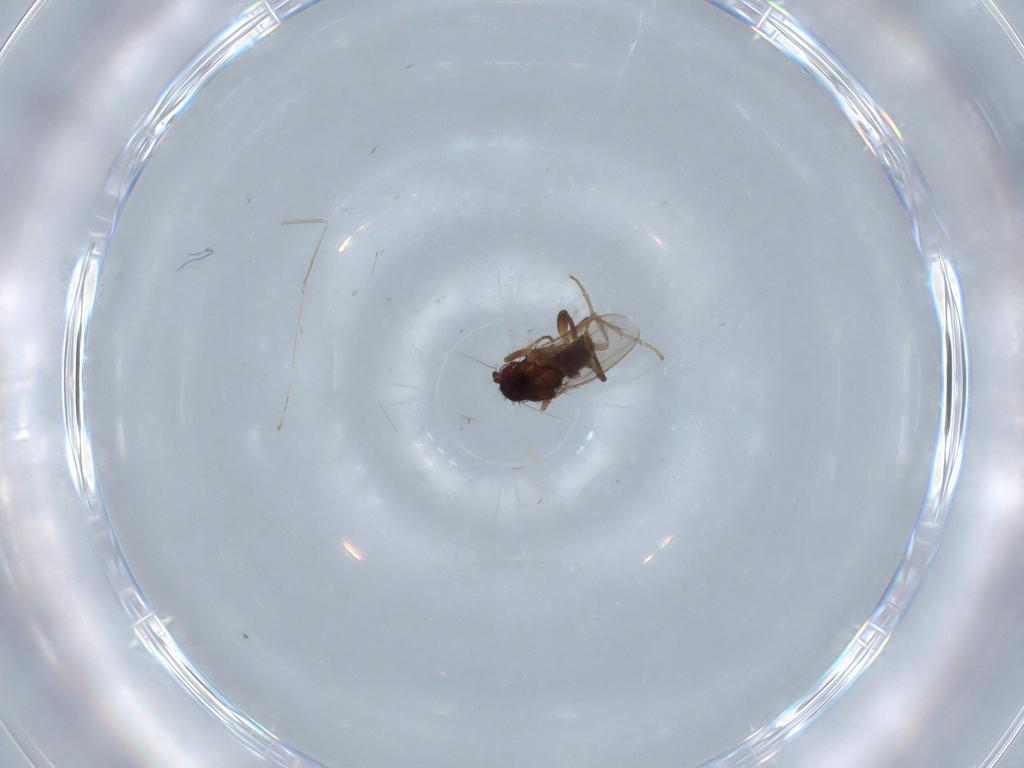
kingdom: Animalia
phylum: Arthropoda
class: Insecta
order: Diptera
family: Sphaeroceridae
